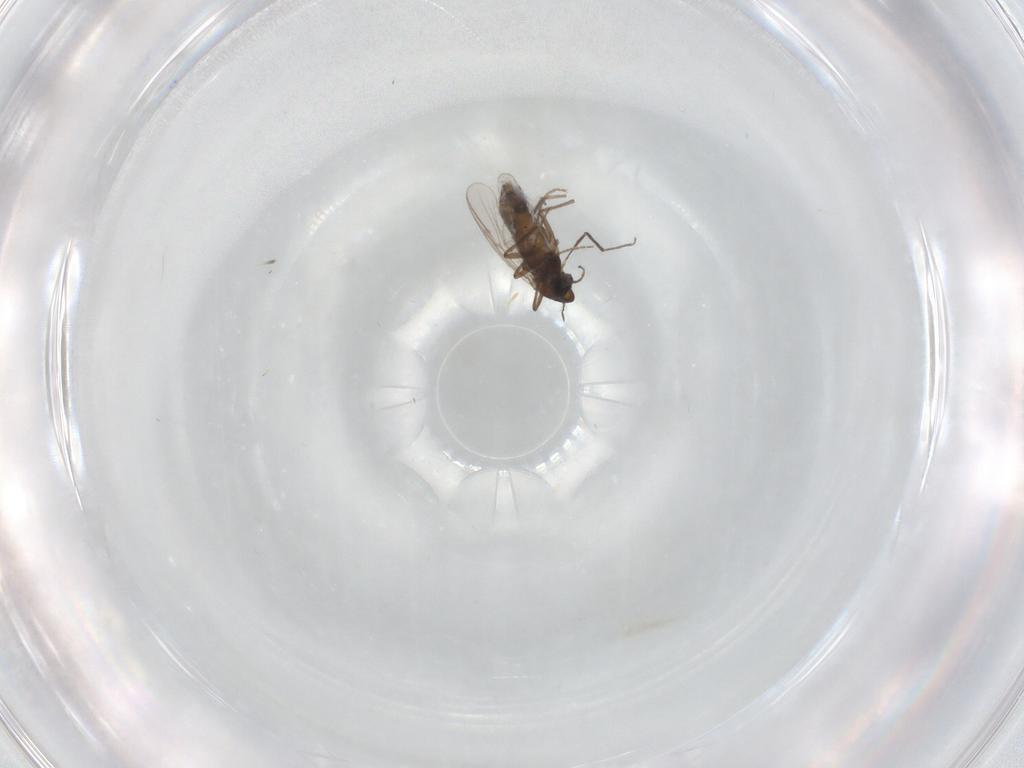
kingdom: Animalia
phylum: Arthropoda
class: Insecta
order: Diptera
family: Chironomidae
